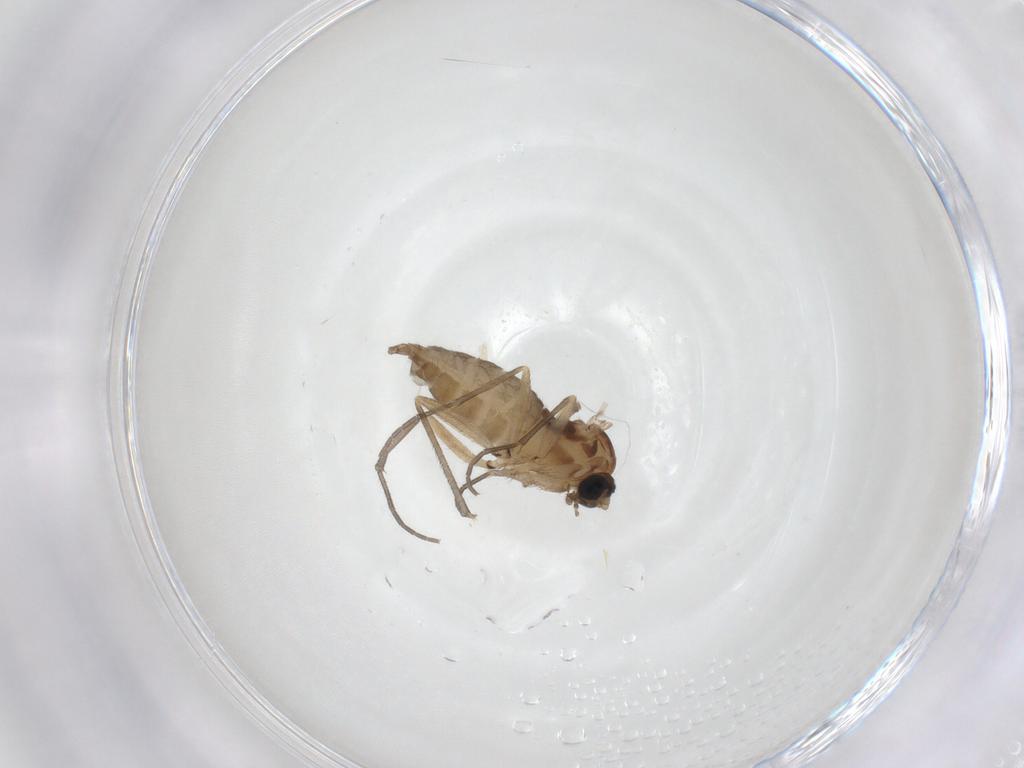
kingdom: Animalia
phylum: Arthropoda
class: Insecta
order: Diptera
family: Sciaridae
